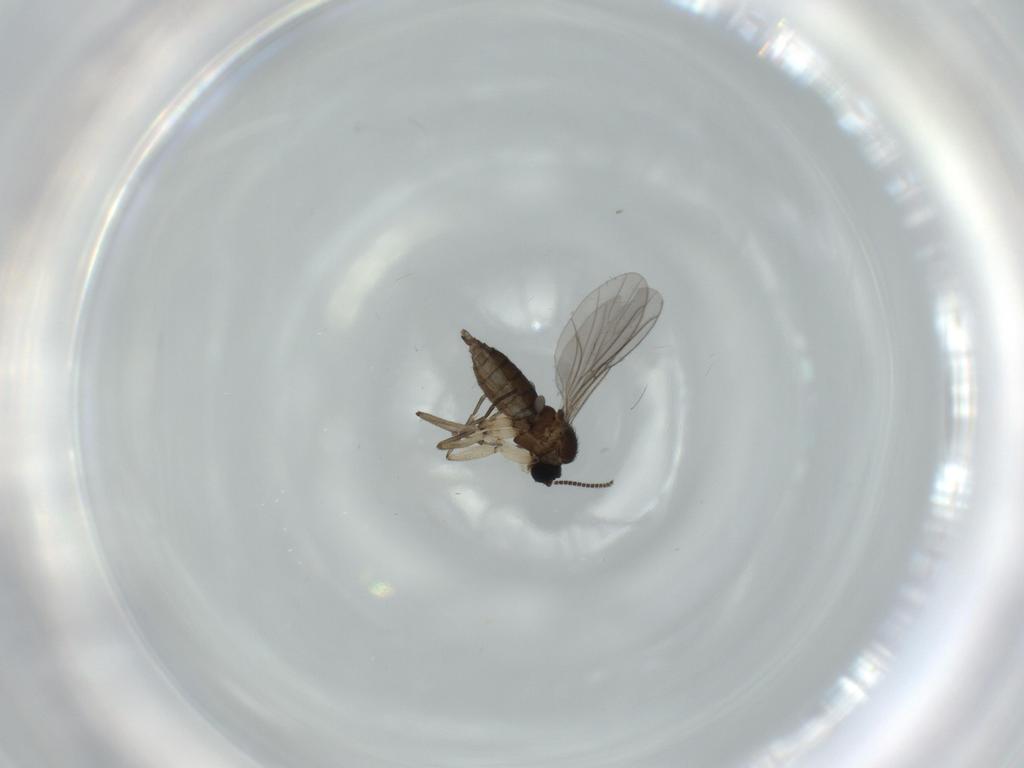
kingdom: Animalia
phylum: Arthropoda
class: Insecta
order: Diptera
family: Sciaridae
